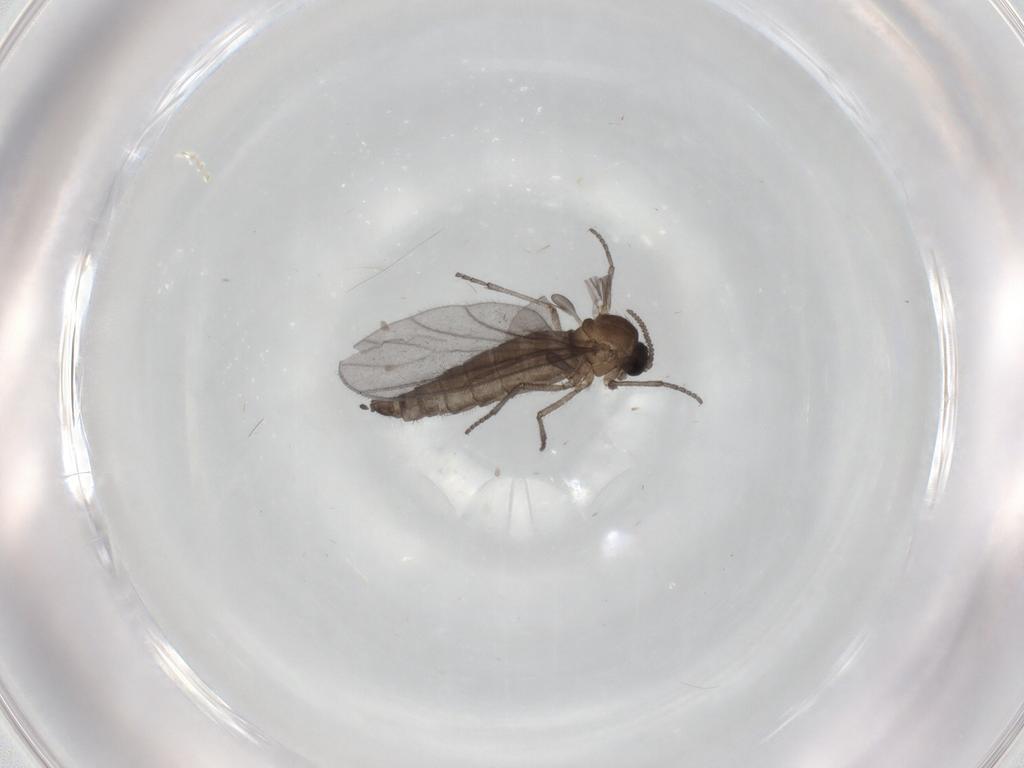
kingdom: Animalia
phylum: Arthropoda
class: Insecta
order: Diptera
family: Sciaridae
